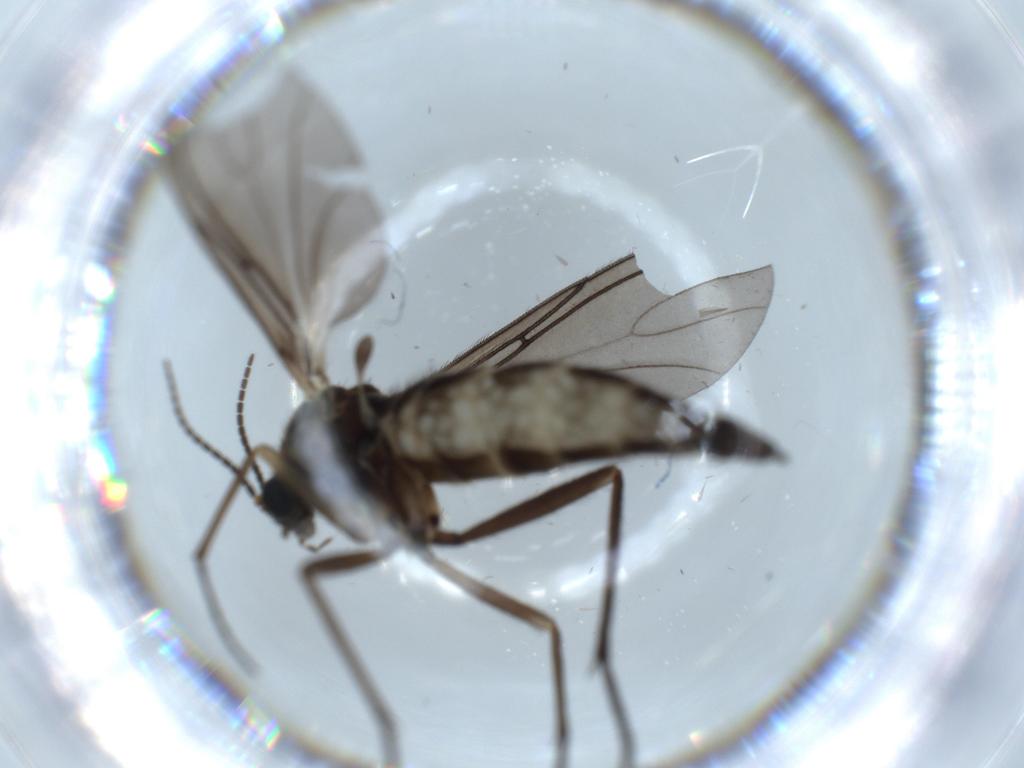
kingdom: Animalia
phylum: Arthropoda
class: Insecta
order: Diptera
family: Sciaridae
